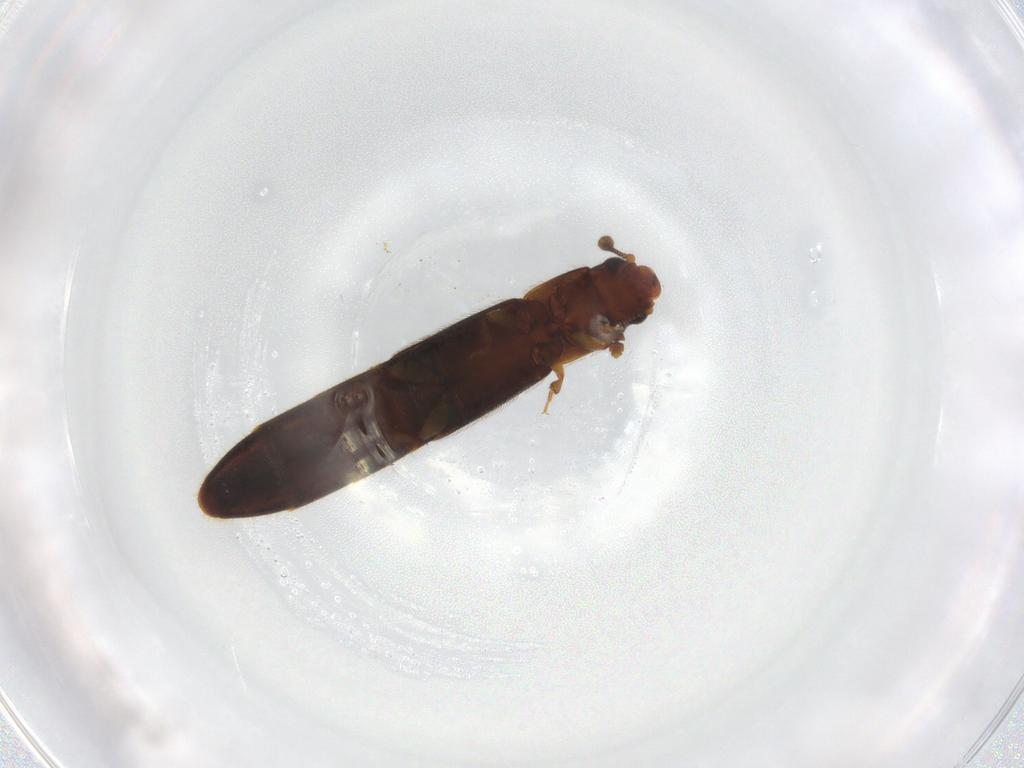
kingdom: Animalia
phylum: Arthropoda
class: Insecta
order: Coleoptera
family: Nitidulidae
